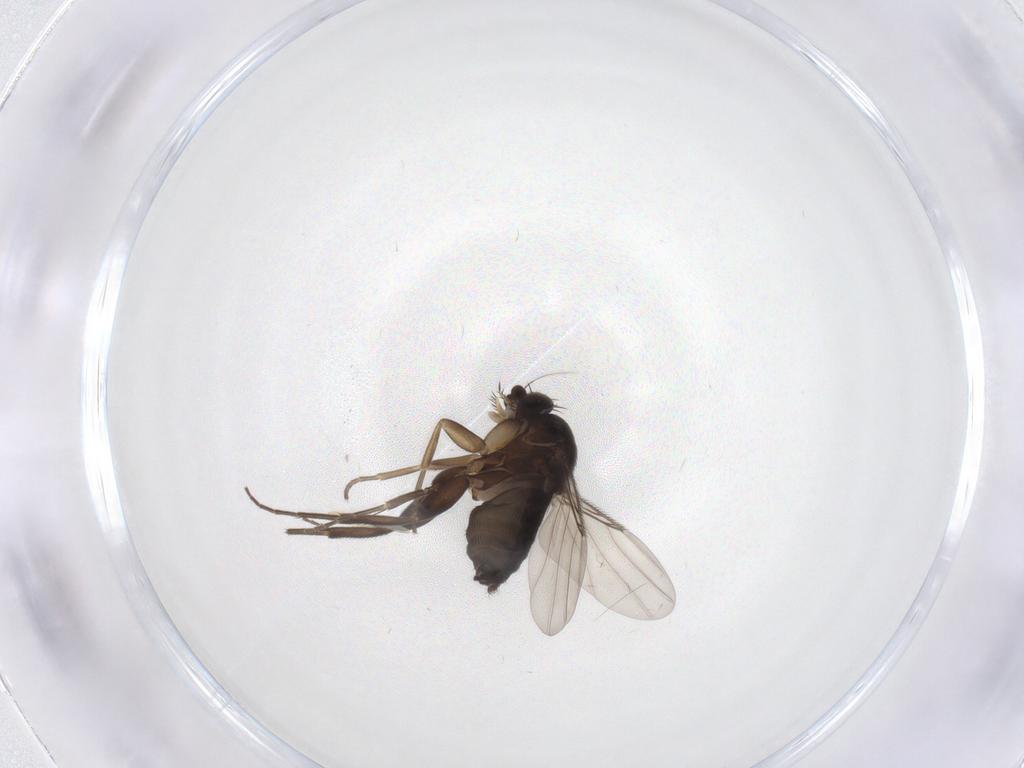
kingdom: Animalia
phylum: Arthropoda
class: Insecta
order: Diptera
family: Phoridae
